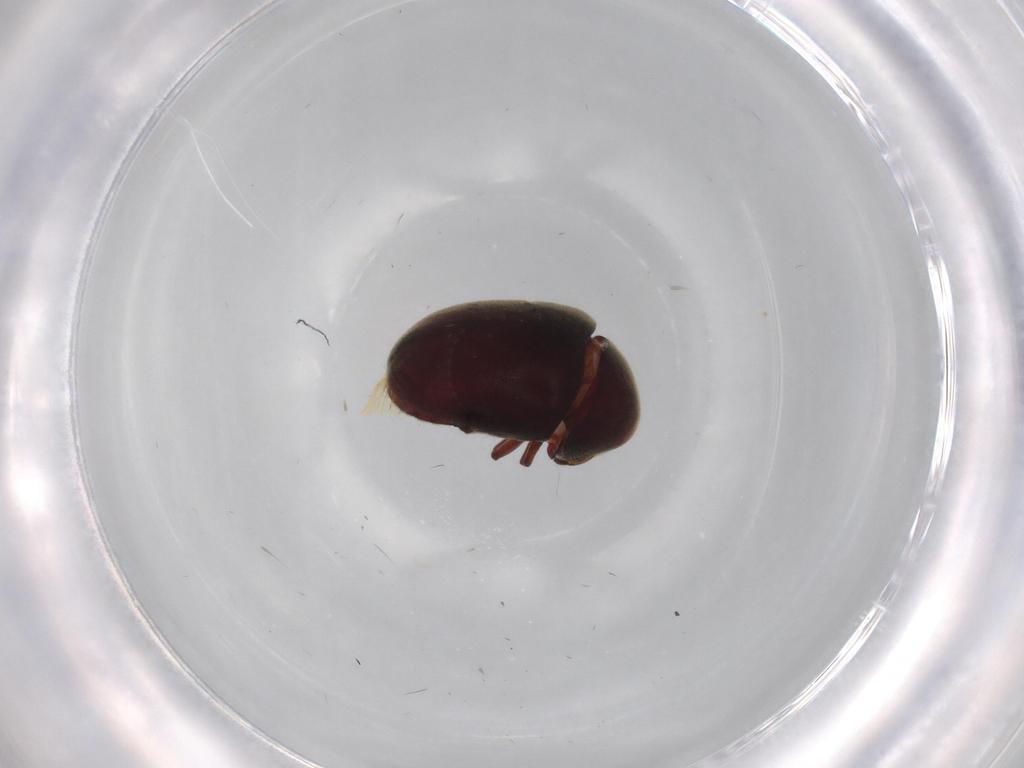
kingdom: Animalia
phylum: Arthropoda
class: Insecta
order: Coleoptera
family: Ptinidae
